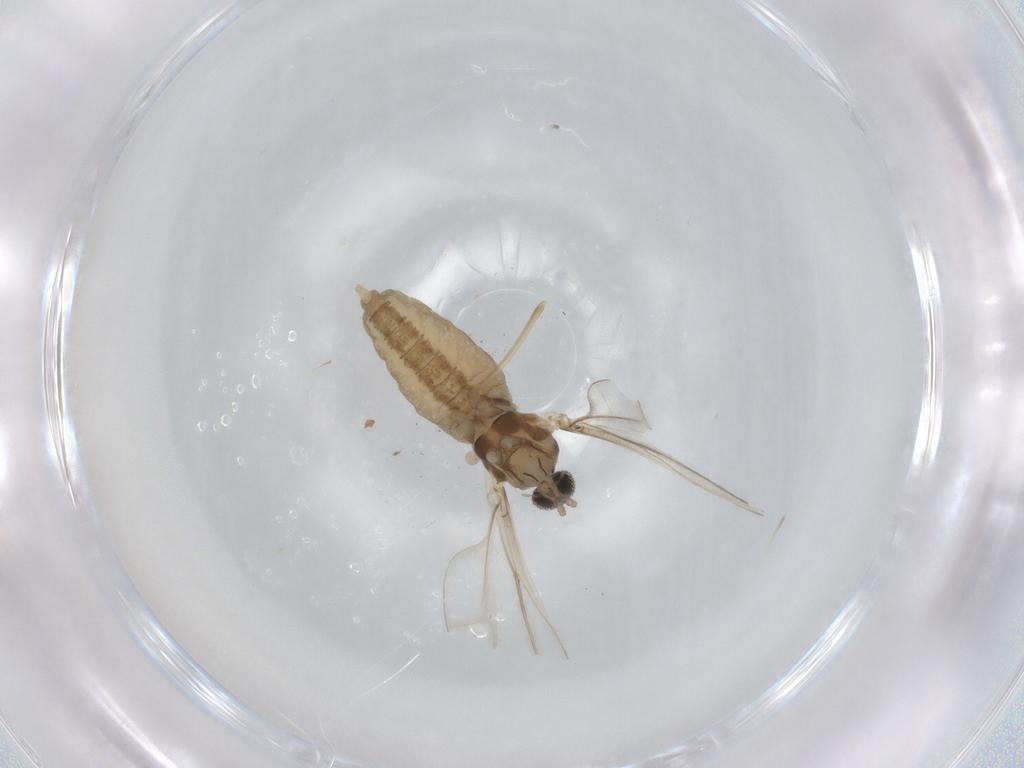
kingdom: Animalia
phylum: Arthropoda
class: Insecta
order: Diptera
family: Cecidomyiidae
